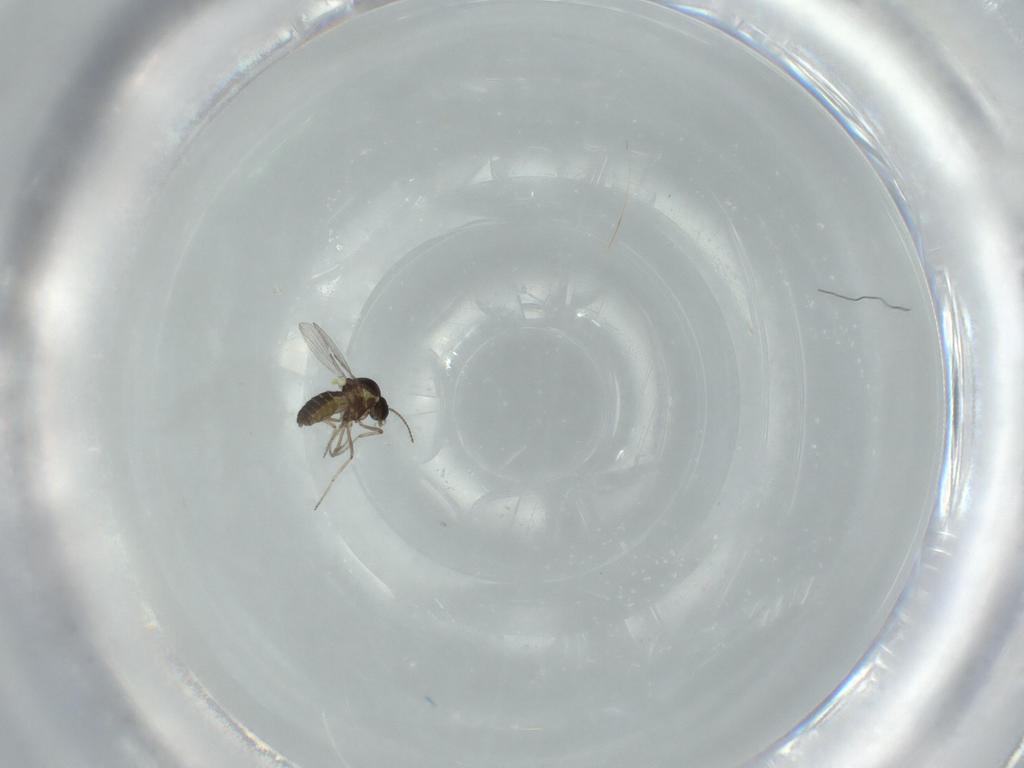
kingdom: Animalia
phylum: Arthropoda
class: Insecta
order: Diptera
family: Ceratopogonidae
